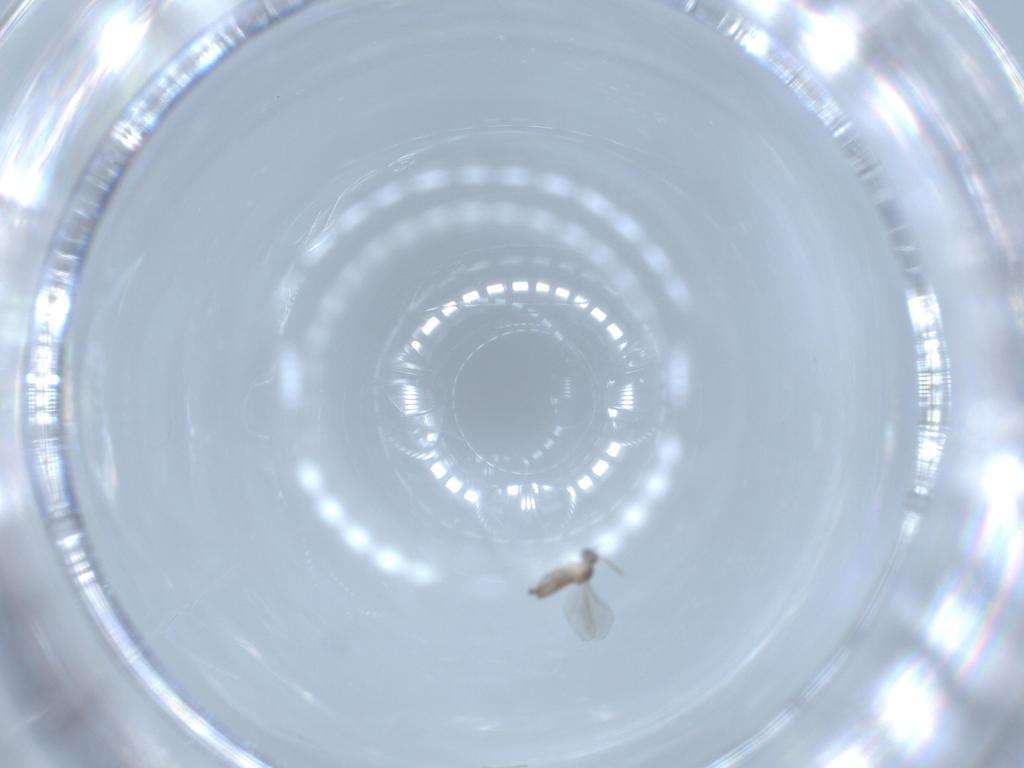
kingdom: Animalia
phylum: Arthropoda
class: Insecta
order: Diptera
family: Cecidomyiidae
